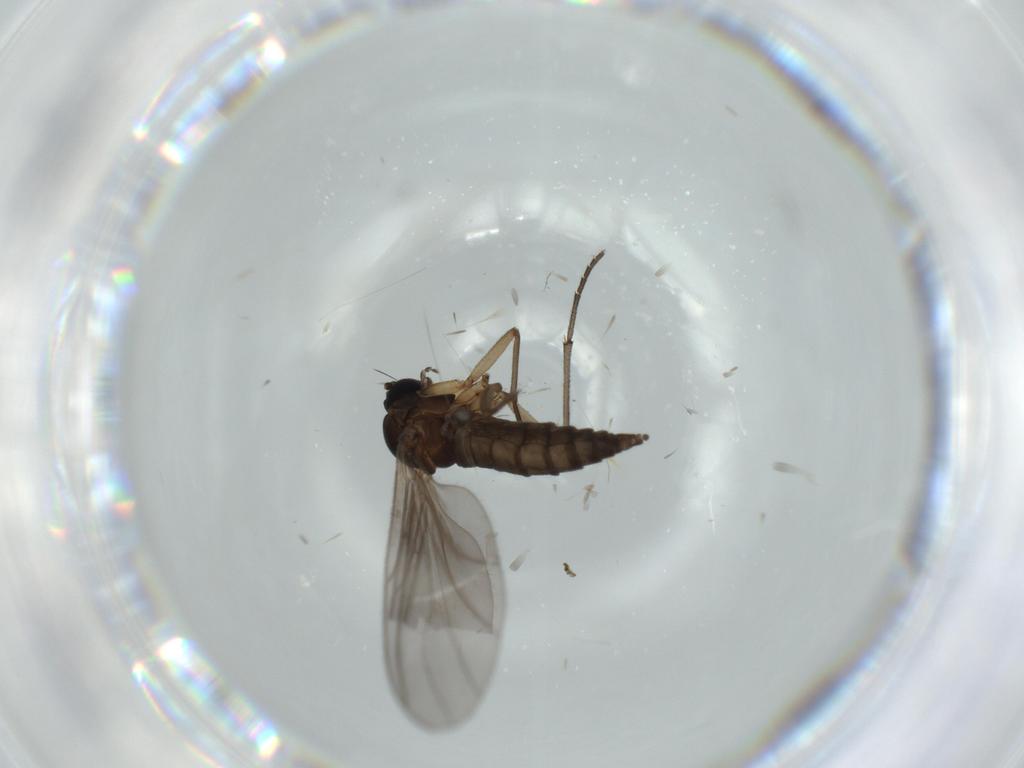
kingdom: Animalia
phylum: Arthropoda
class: Insecta
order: Diptera
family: Sciaridae
